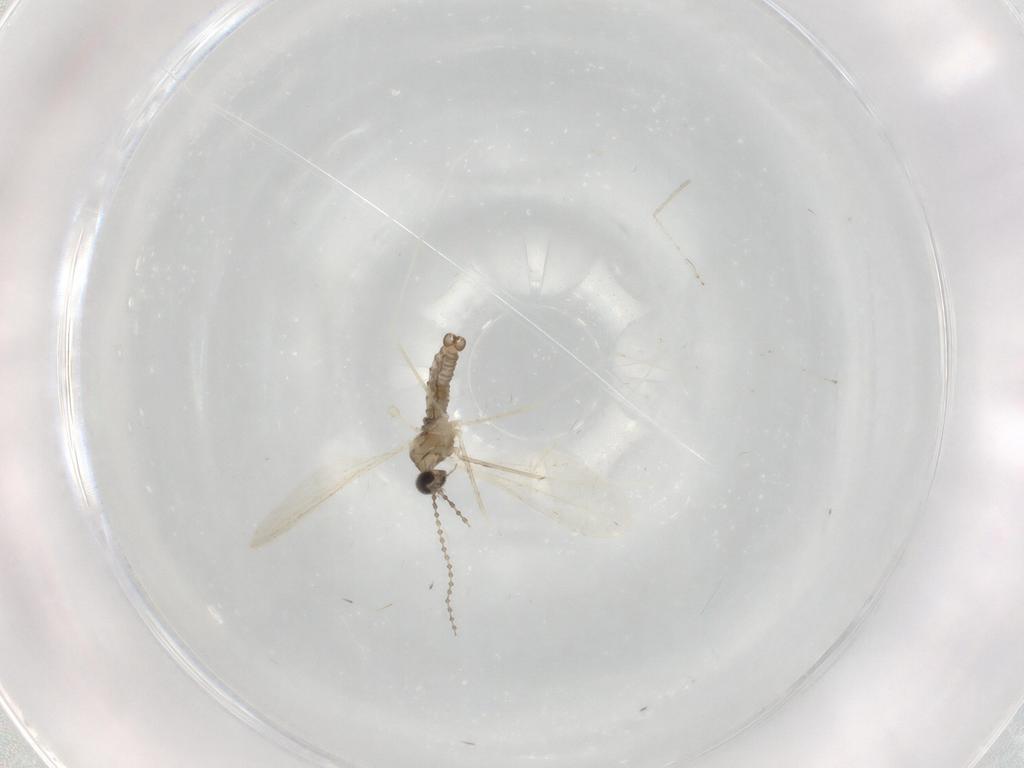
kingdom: Animalia
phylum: Arthropoda
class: Insecta
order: Diptera
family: Cecidomyiidae
